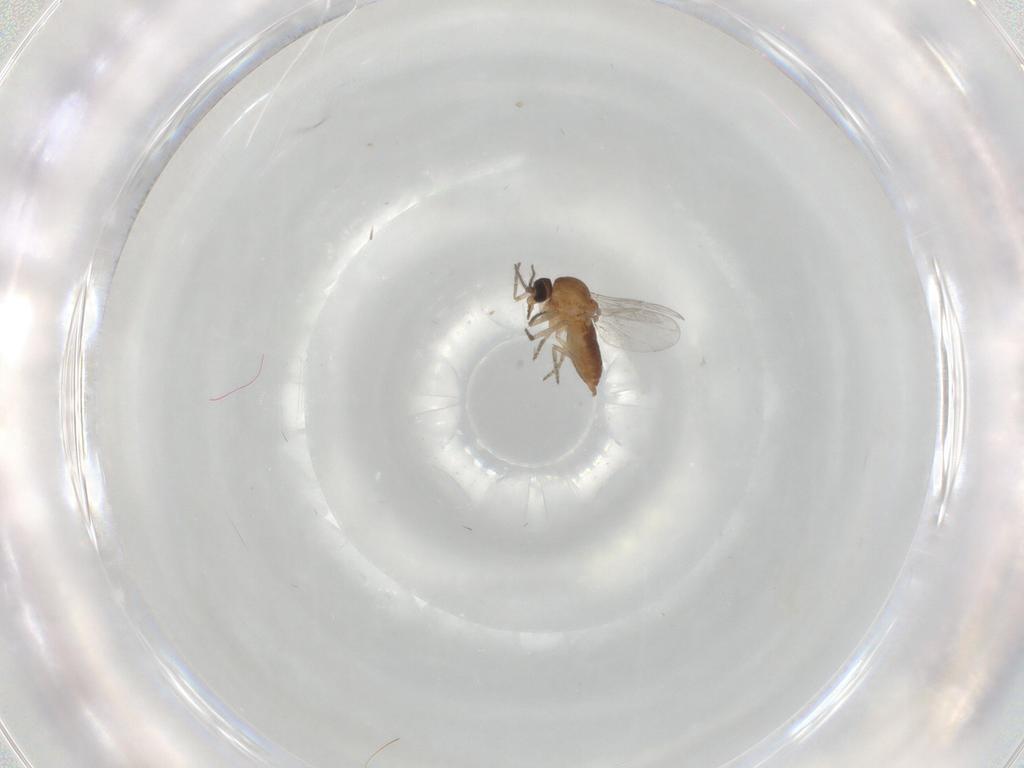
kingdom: Animalia
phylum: Arthropoda
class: Insecta
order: Diptera
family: Ceratopogonidae
